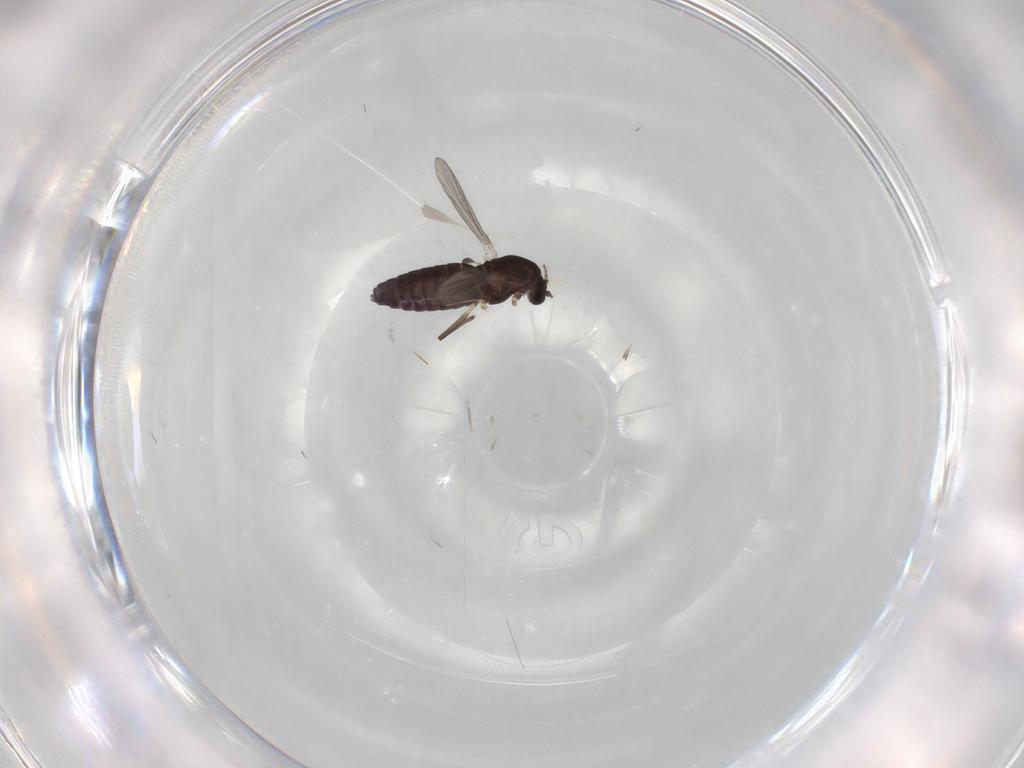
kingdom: Animalia
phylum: Arthropoda
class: Insecta
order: Diptera
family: Chironomidae
